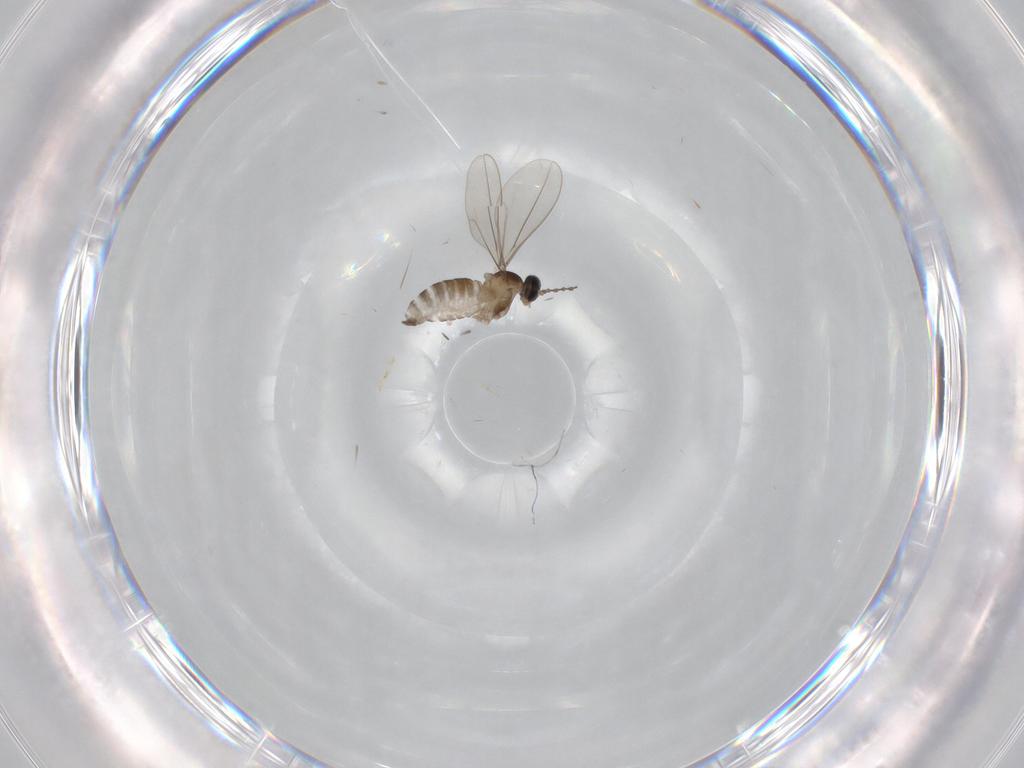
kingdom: Animalia
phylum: Arthropoda
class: Insecta
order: Diptera
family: Cecidomyiidae
